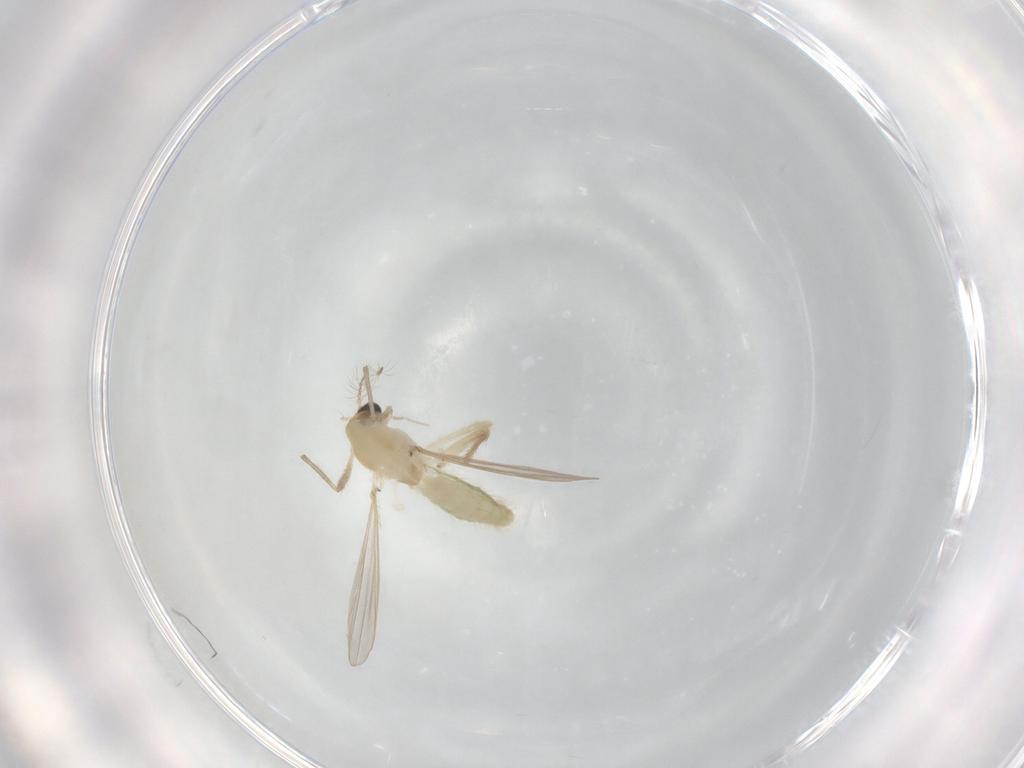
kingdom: Animalia
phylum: Arthropoda
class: Insecta
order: Diptera
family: Chironomidae
